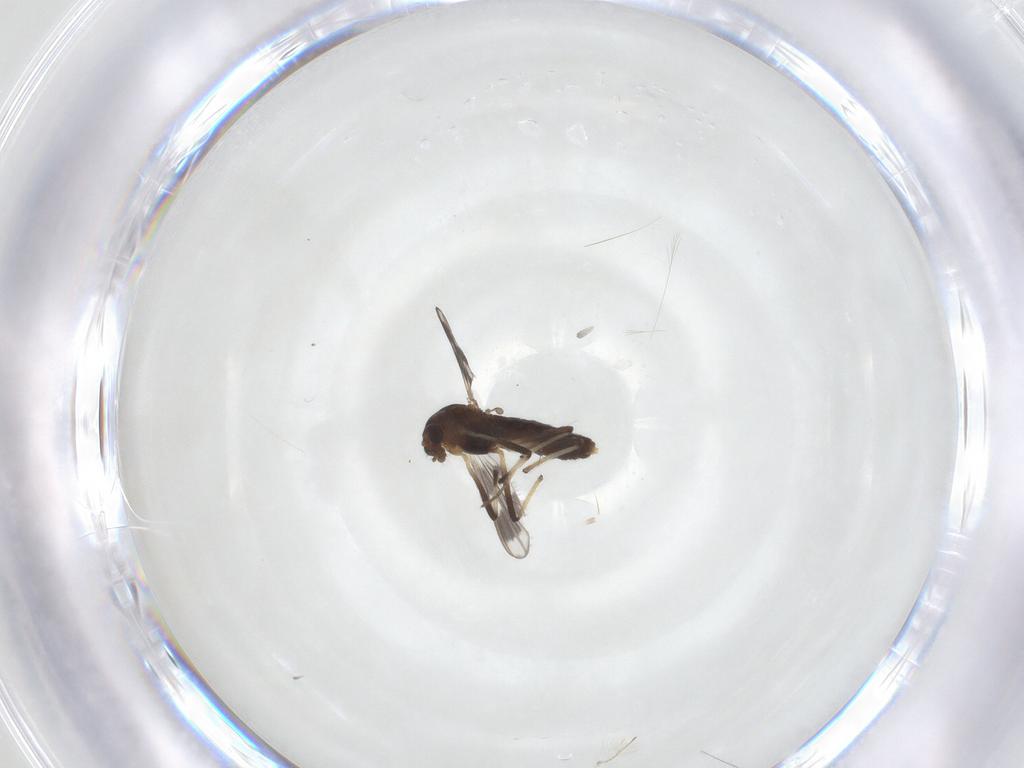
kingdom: Animalia
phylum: Arthropoda
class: Insecta
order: Diptera
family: Chironomidae
